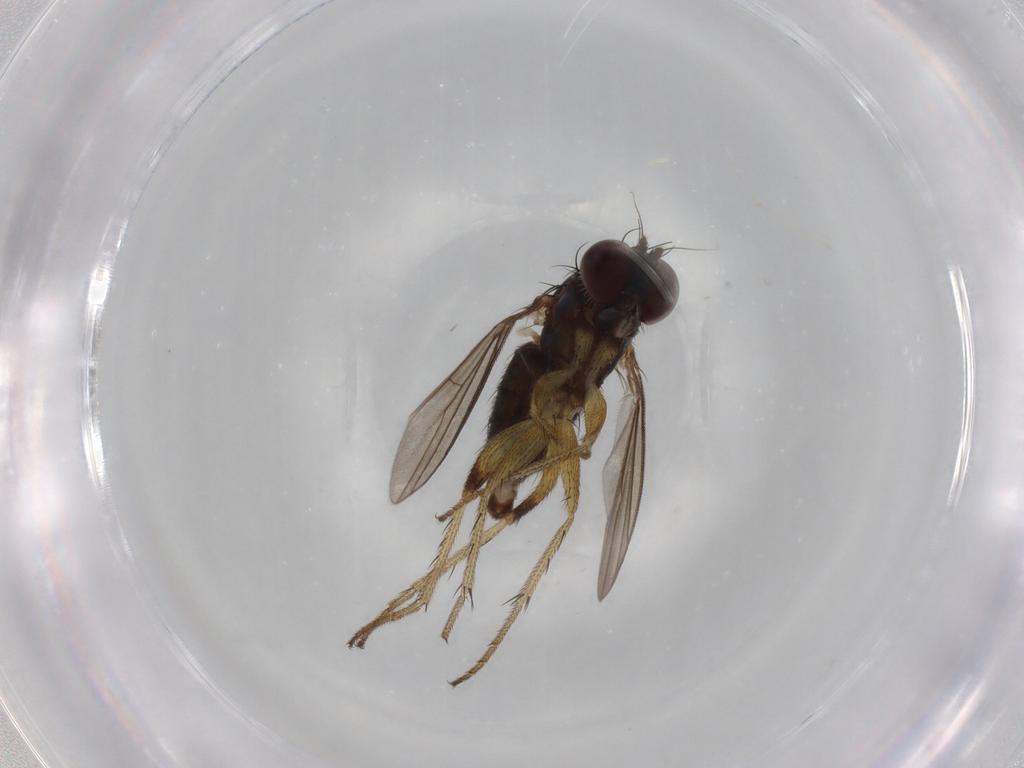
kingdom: Animalia
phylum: Arthropoda
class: Insecta
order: Diptera
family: Dolichopodidae
